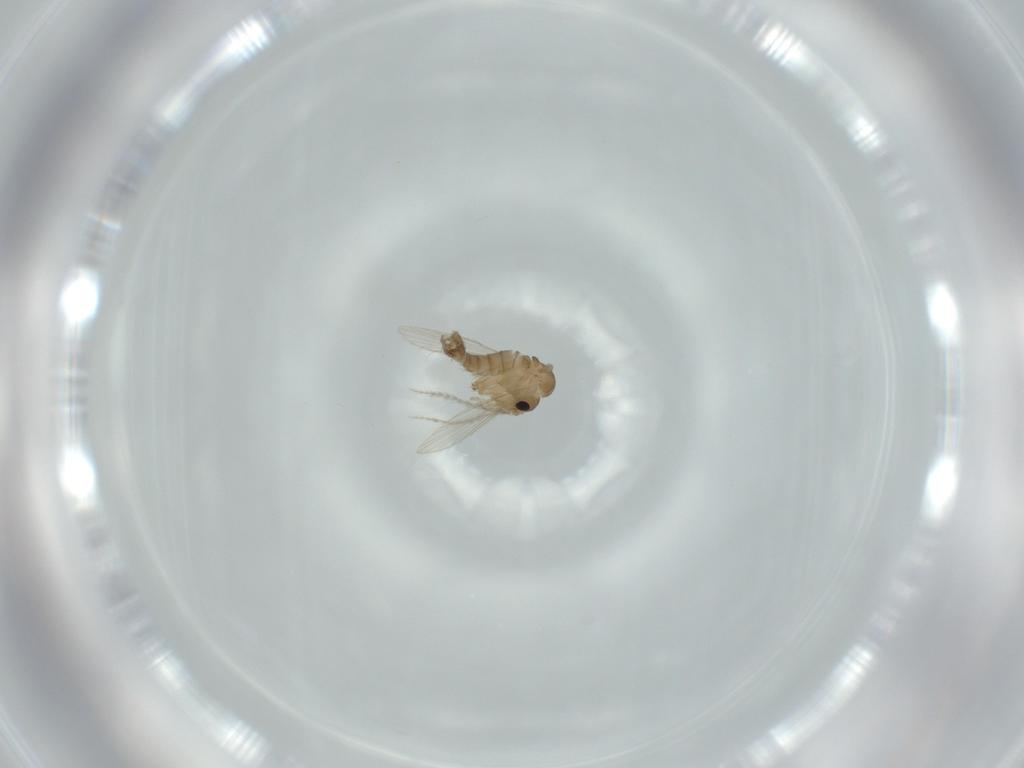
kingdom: Animalia
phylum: Arthropoda
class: Insecta
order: Diptera
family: Psychodidae
